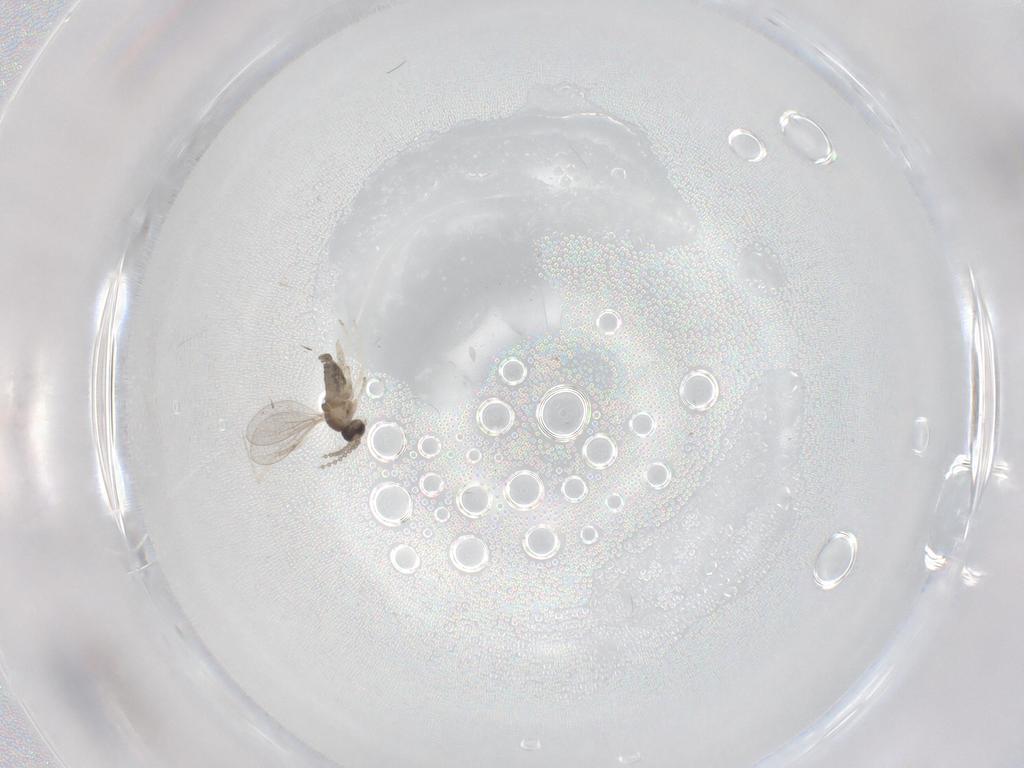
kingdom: Animalia
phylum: Arthropoda
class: Insecta
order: Diptera
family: Cecidomyiidae
